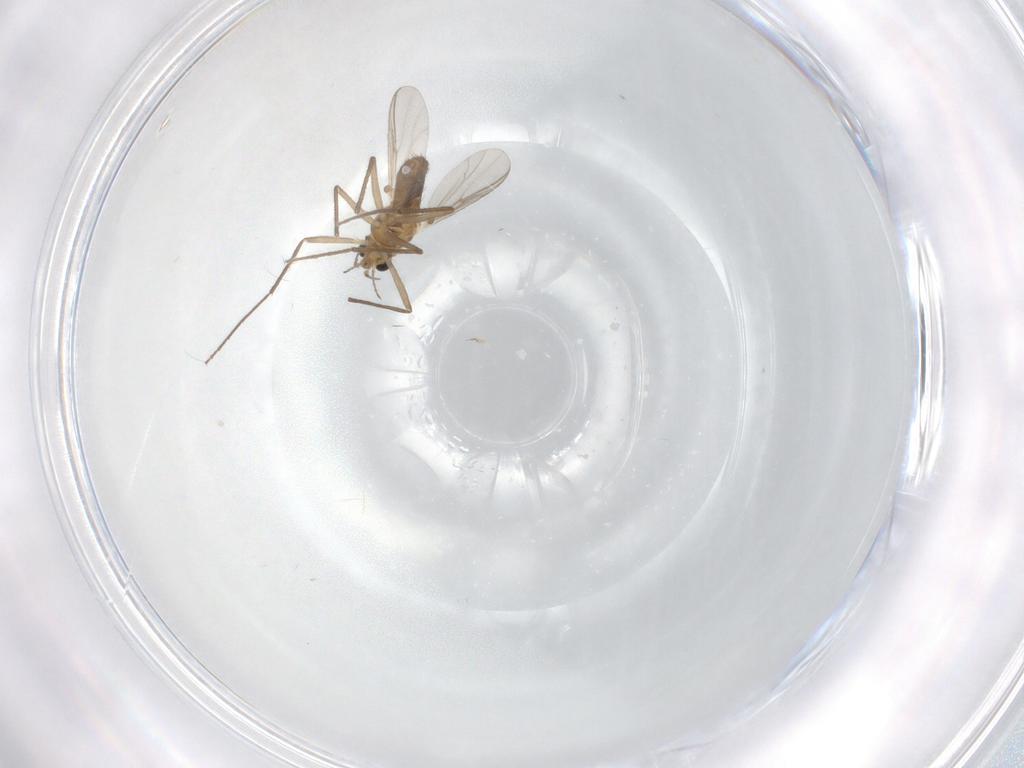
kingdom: Animalia
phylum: Arthropoda
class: Insecta
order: Diptera
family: Chironomidae
